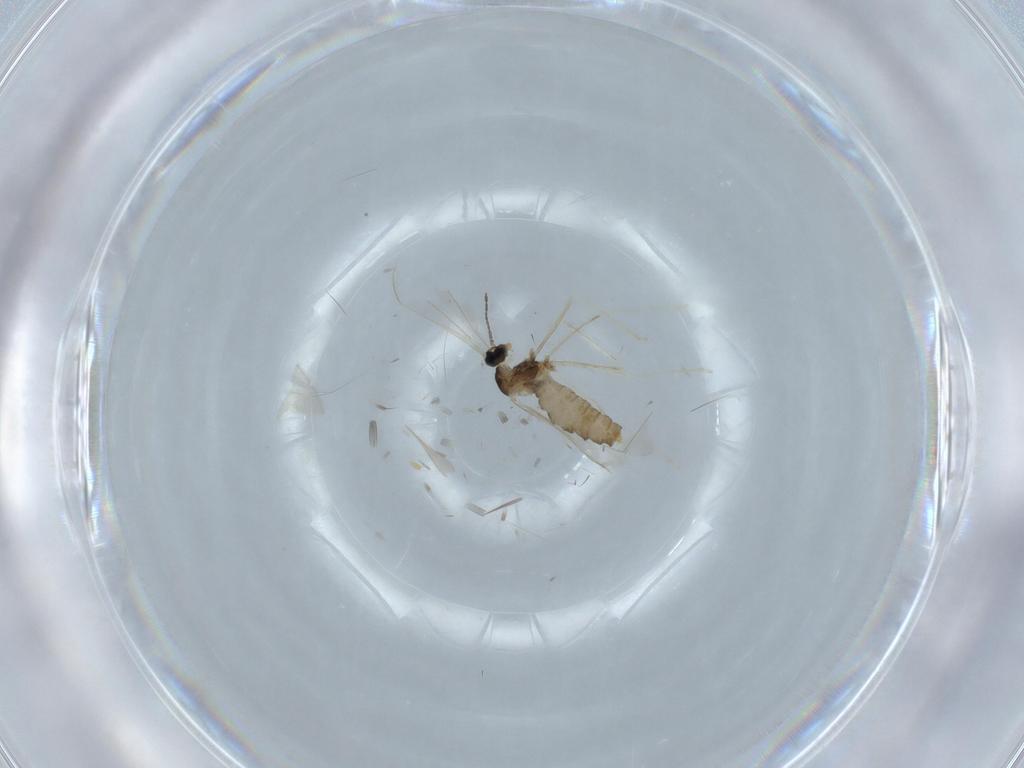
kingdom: Animalia
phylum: Arthropoda
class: Insecta
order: Diptera
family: Cecidomyiidae
